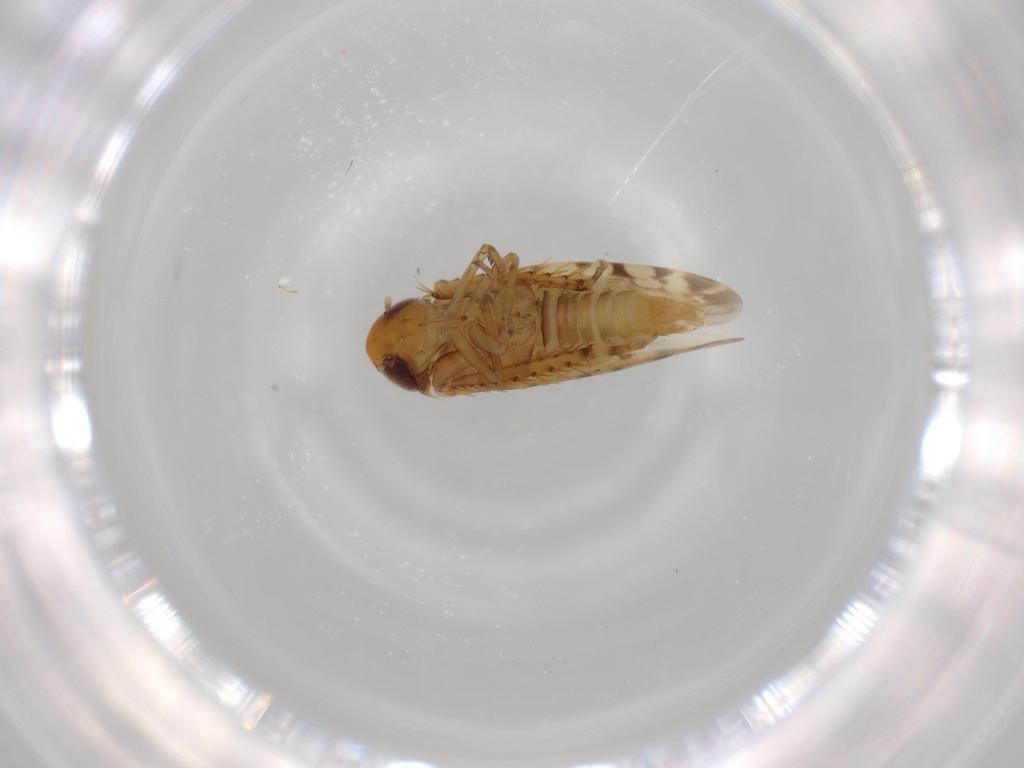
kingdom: Animalia
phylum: Arthropoda
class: Insecta
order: Hemiptera
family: Cicadellidae
